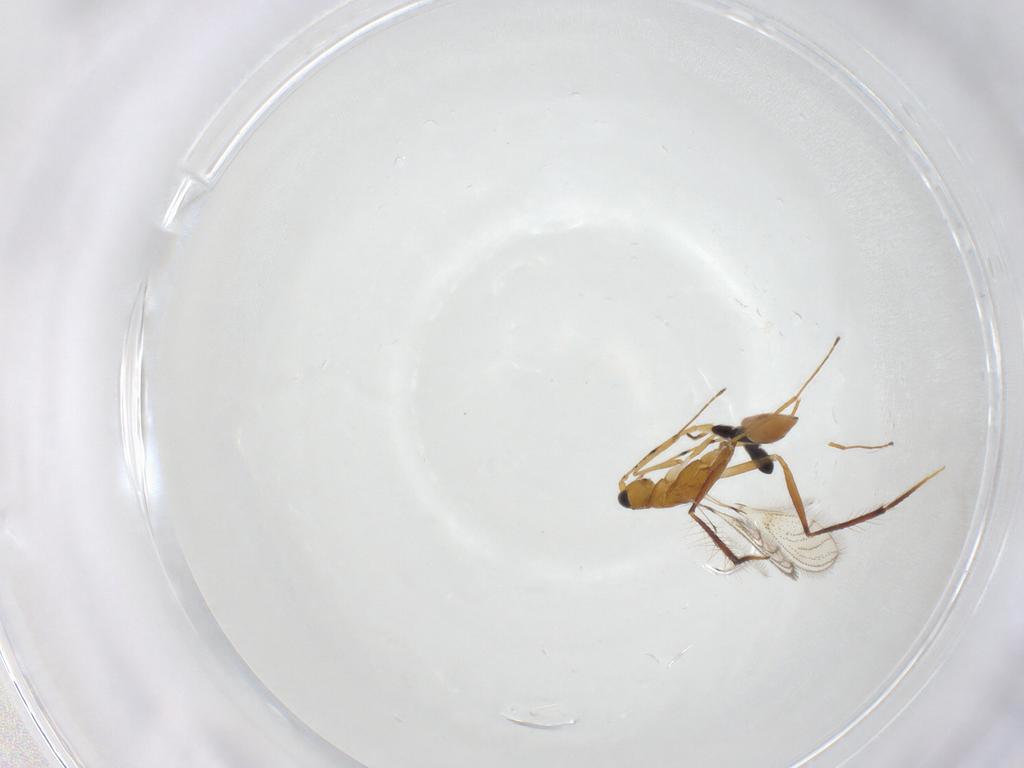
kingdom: Animalia
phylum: Arthropoda
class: Insecta
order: Hymenoptera
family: Mymaridae
